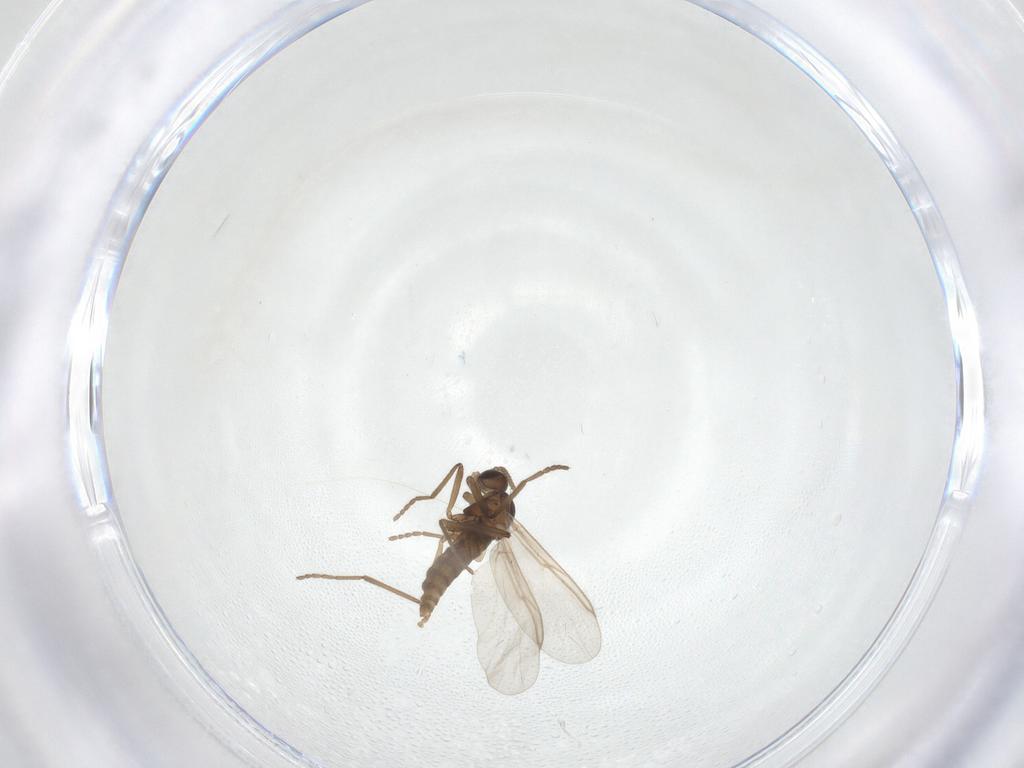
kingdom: Animalia
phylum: Arthropoda
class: Insecta
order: Diptera
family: Cecidomyiidae
